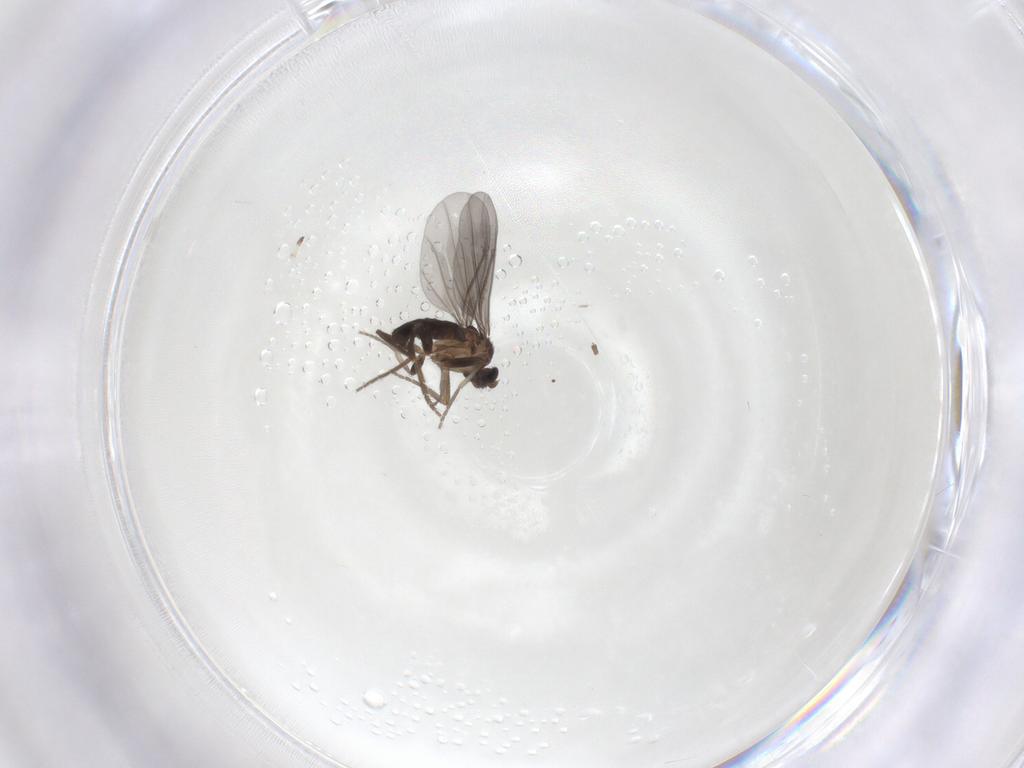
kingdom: Animalia
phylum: Arthropoda
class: Insecta
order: Diptera
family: Phoridae
